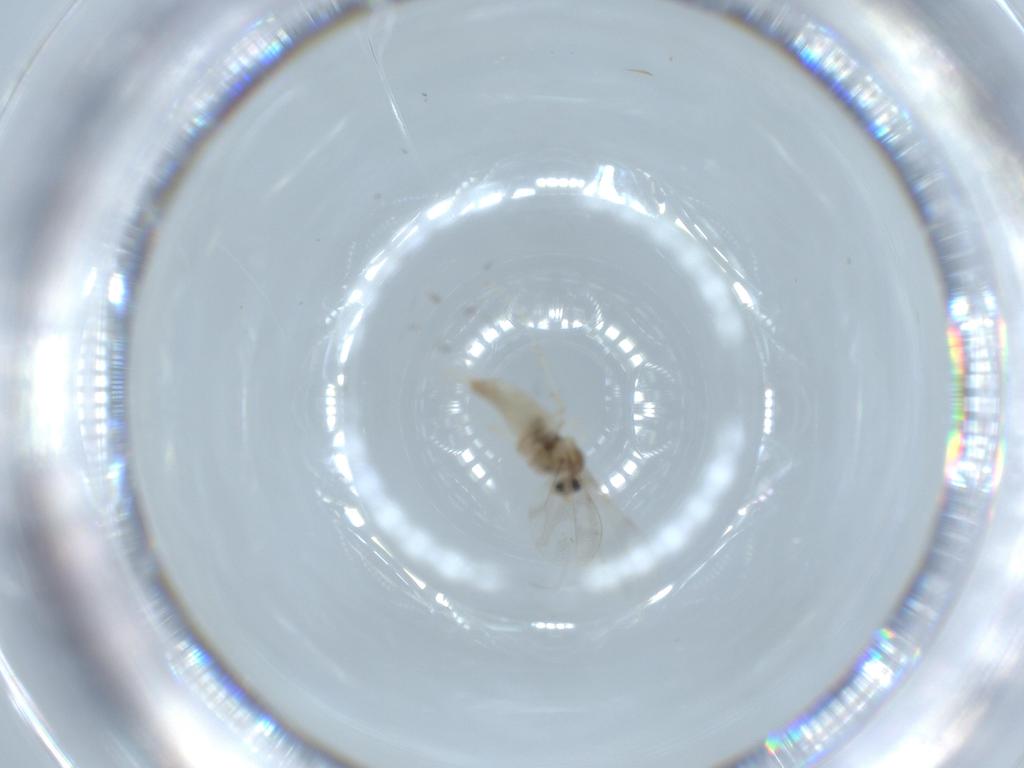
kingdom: Animalia
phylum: Arthropoda
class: Insecta
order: Diptera
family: Cecidomyiidae
